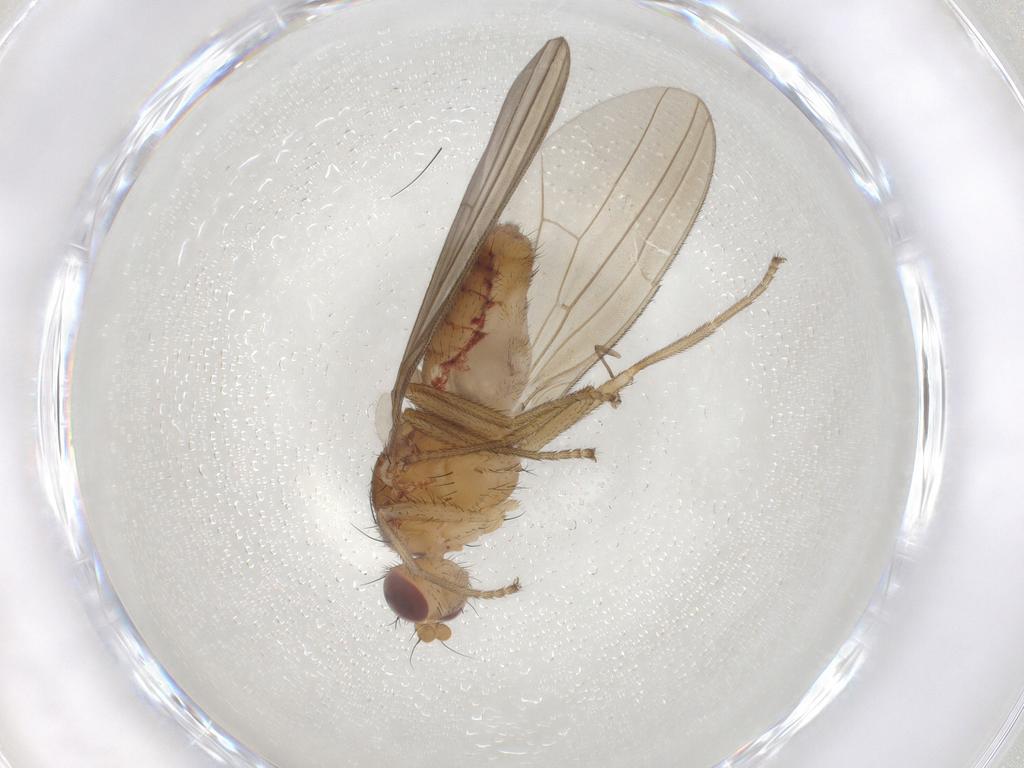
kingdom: Animalia
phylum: Arthropoda
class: Insecta
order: Diptera
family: Natalimyzidae
